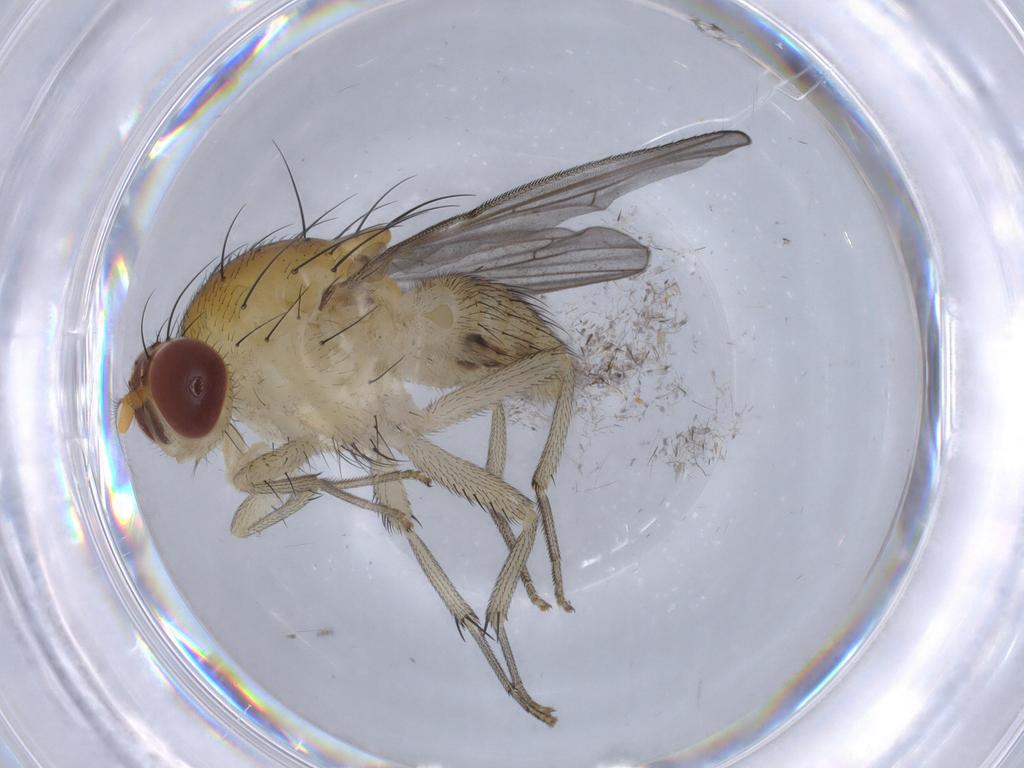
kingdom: Animalia
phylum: Arthropoda
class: Insecta
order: Diptera
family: Chironomidae
